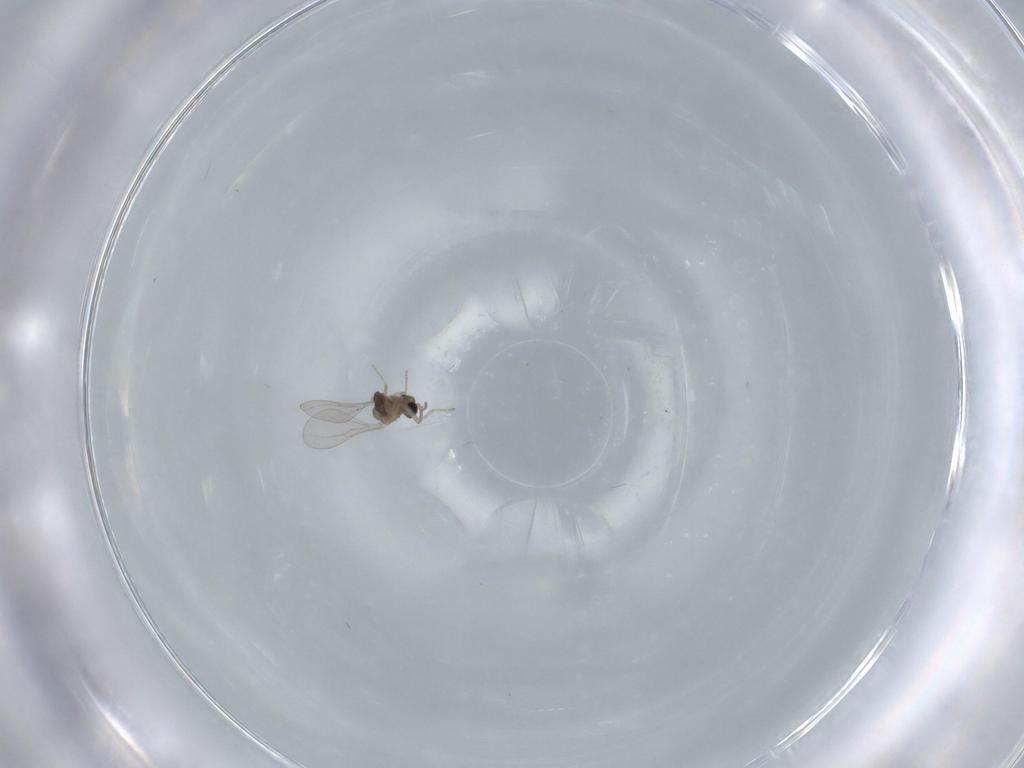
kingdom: Animalia
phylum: Arthropoda
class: Insecta
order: Diptera
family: Cecidomyiidae
